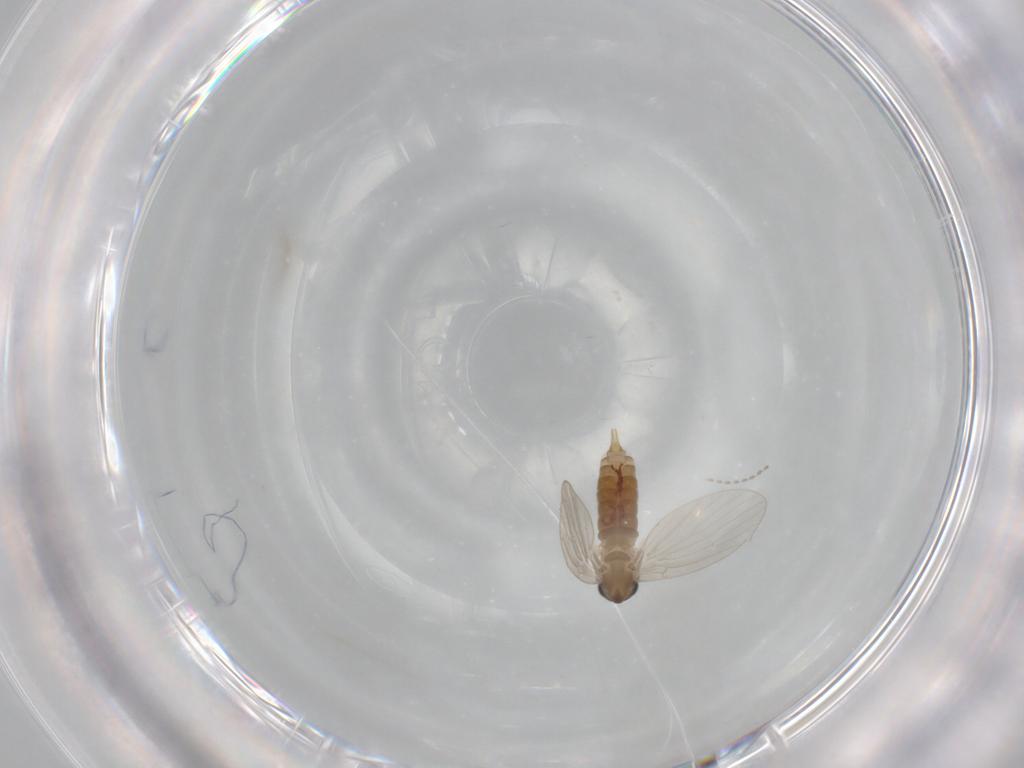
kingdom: Animalia
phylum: Arthropoda
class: Insecta
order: Diptera
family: Psychodidae
